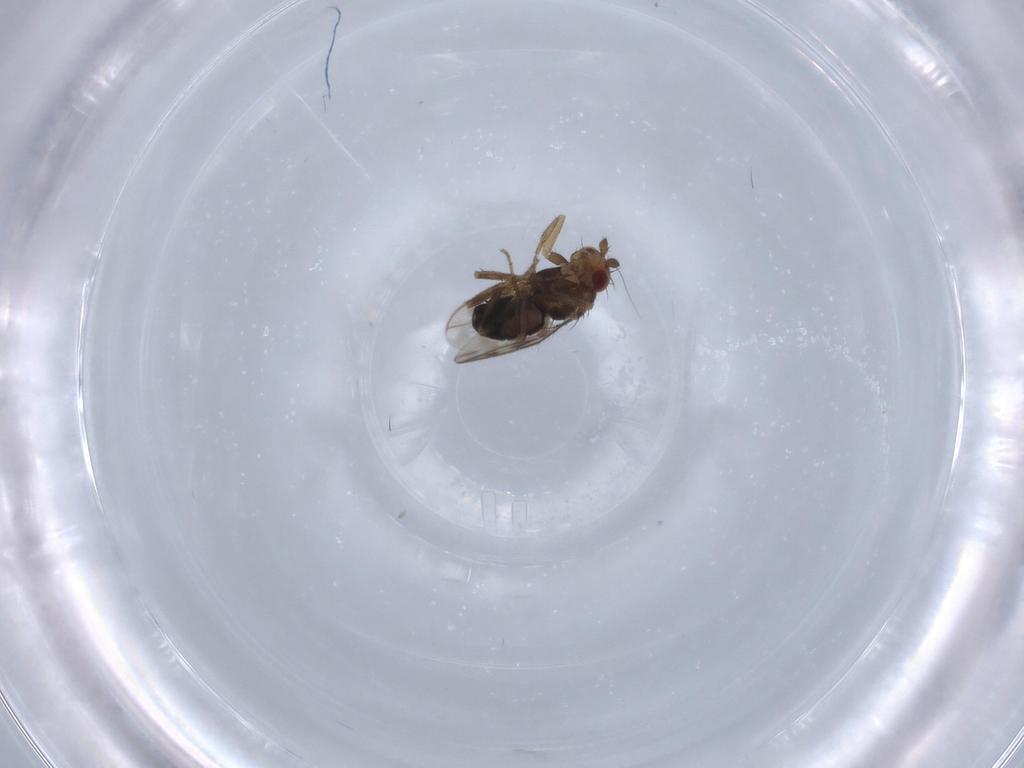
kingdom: Animalia
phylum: Arthropoda
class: Insecta
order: Diptera
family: Sphaeroceridae
